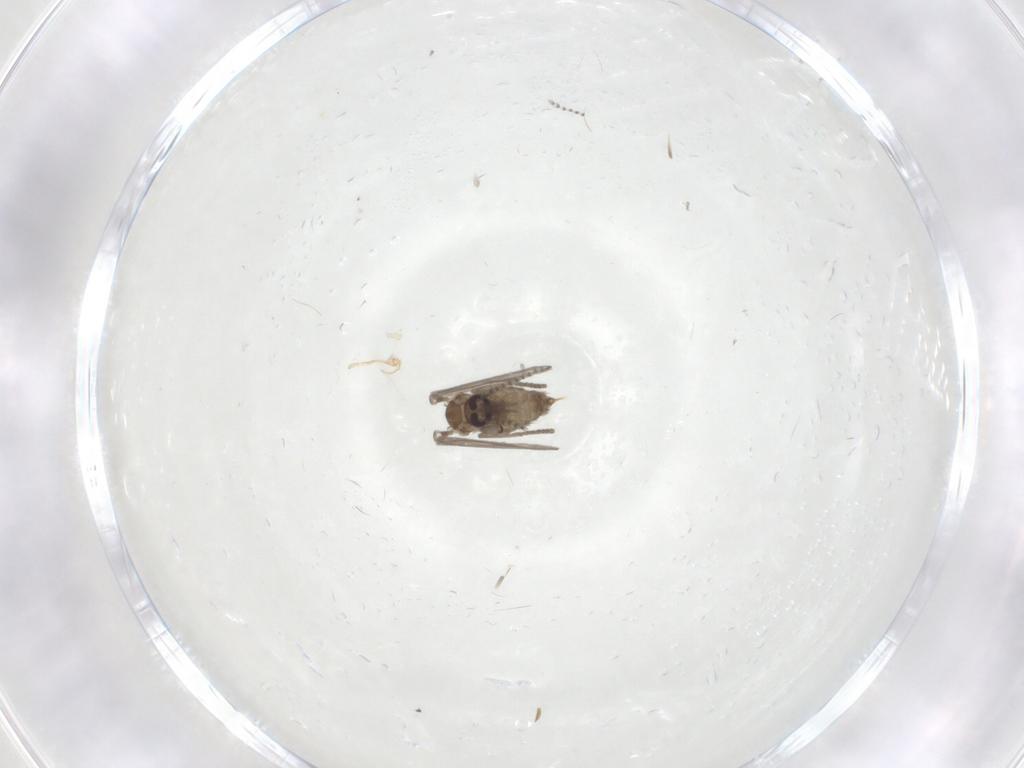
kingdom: Animalia
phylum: Arthropoda
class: Insecta
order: Diptera
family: Psychodidae
